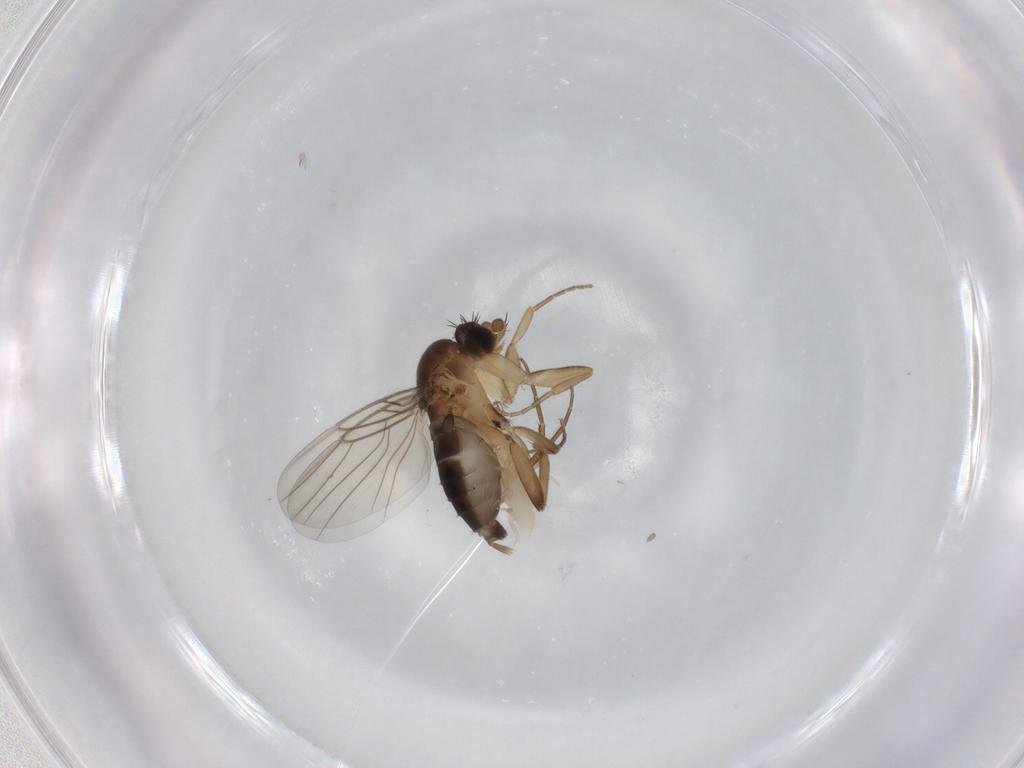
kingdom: Animalia
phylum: Arthropoda
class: Insecta
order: Diptera
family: Phoridae
